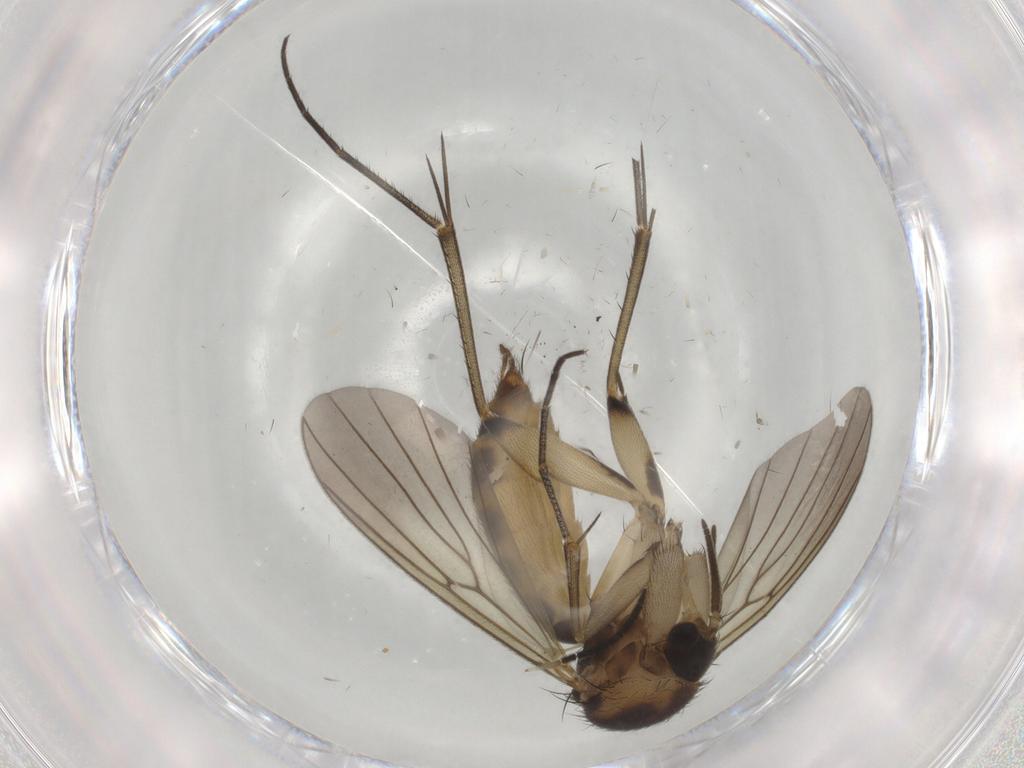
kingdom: Animalia
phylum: Arthropoda
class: Insecta
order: Diptera
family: Mycetophilidae
